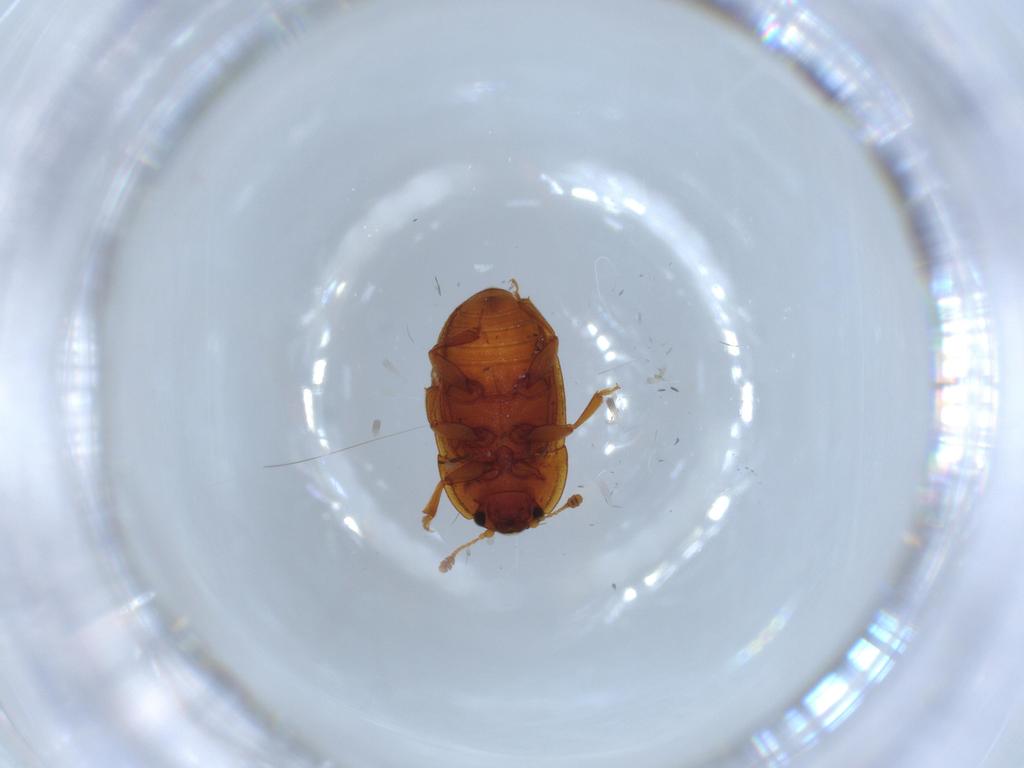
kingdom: Animalia
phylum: Arthropoda
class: Insecta
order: Coleoptera
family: Nitidulidae
